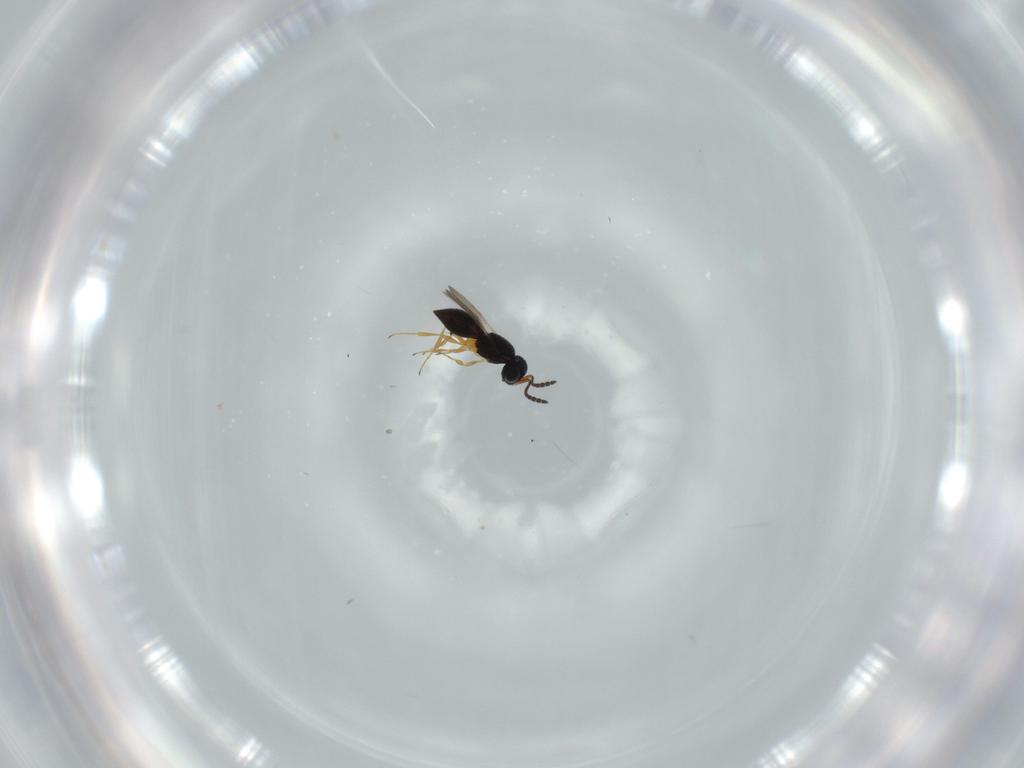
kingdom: Animalia
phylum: Arthropoda
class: Insecta
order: Hymenoptera
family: Scelionidae
